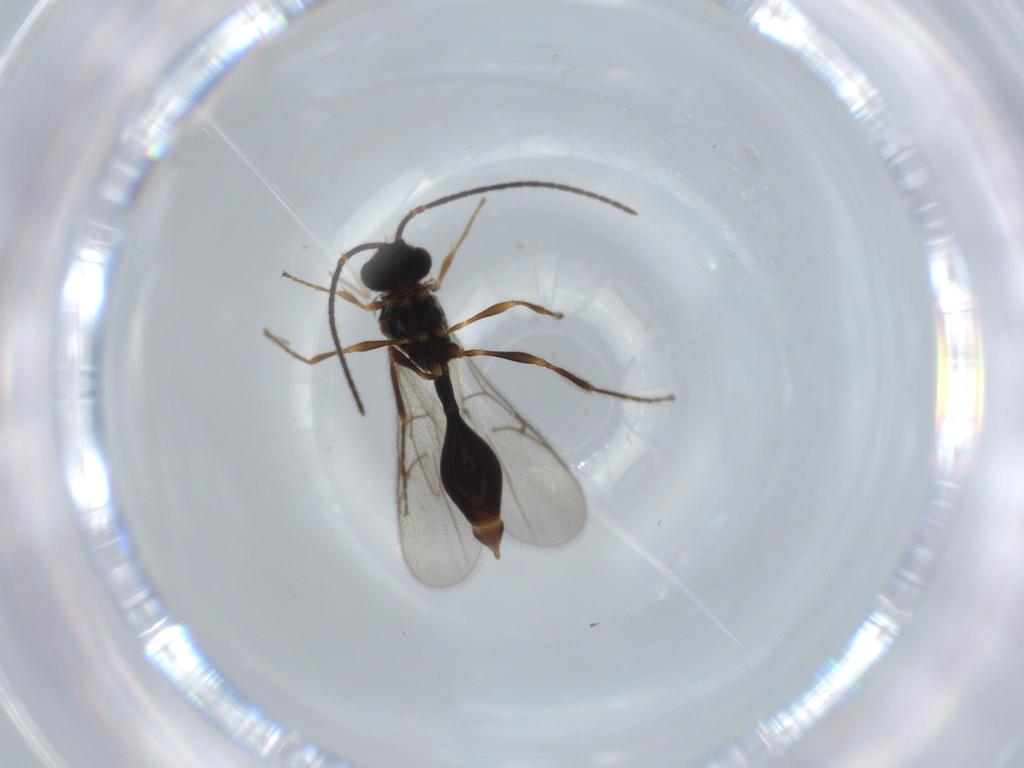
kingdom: Animalia
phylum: Arthropoda
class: Insecta
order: Hymenoptera
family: Diapriidae
